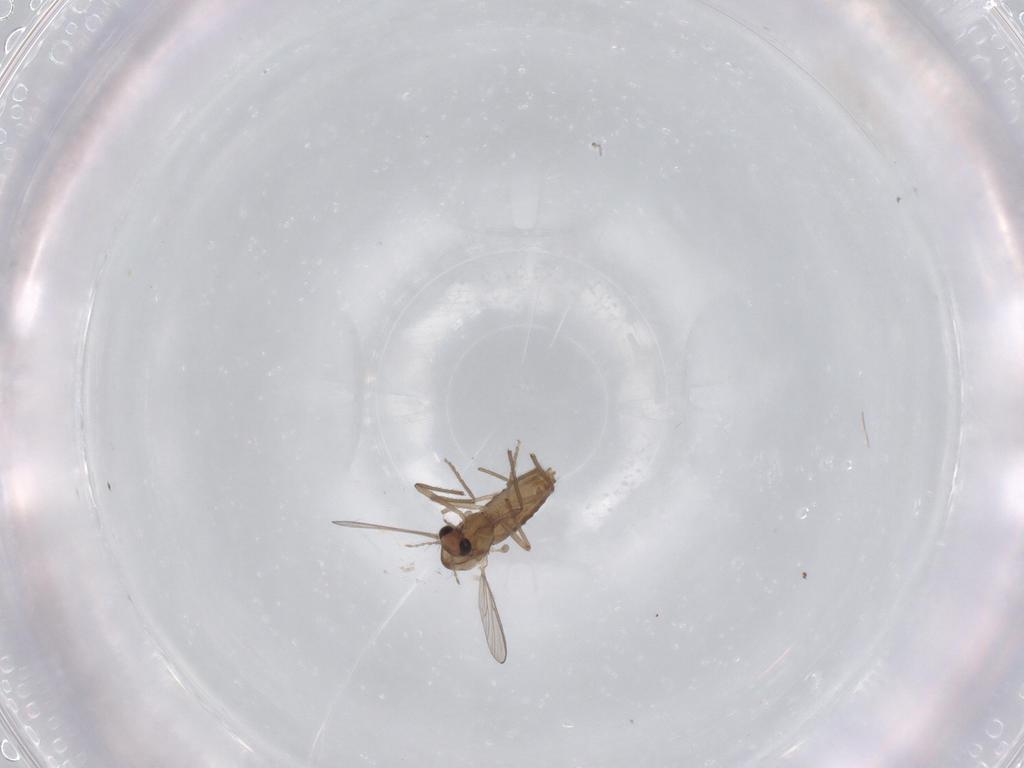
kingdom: Animalia
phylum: Arthropoda
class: Insecta
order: Diptera
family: Chironomidae
